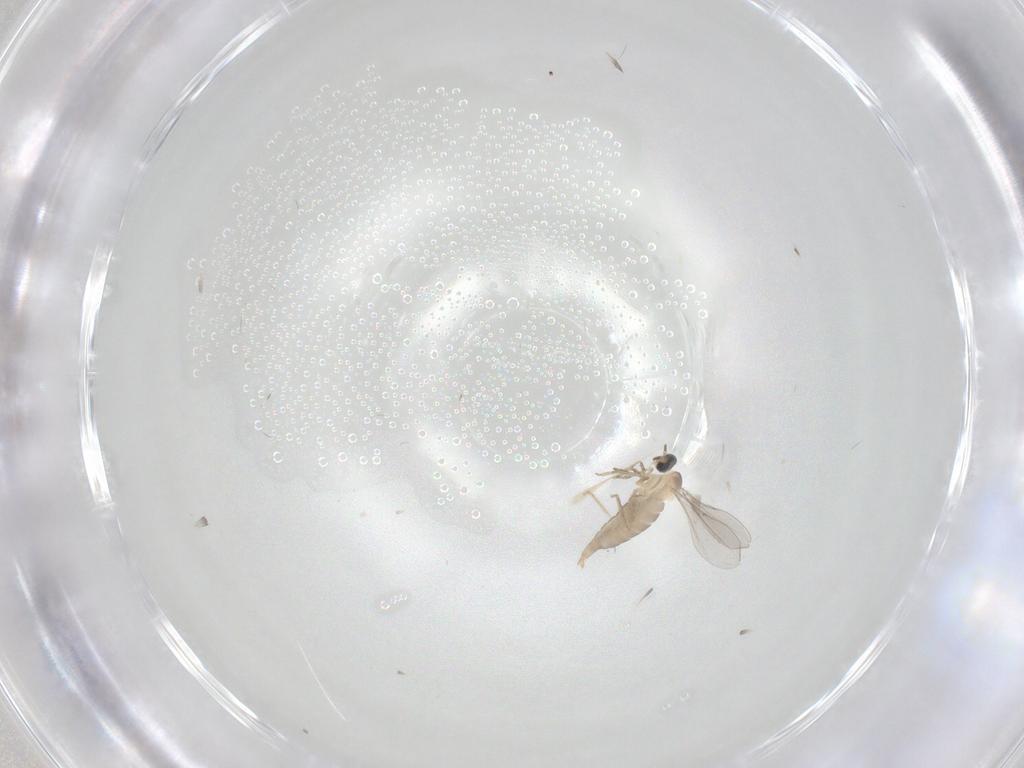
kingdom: Animalia
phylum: Arthropoda
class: Insecta
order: Diptera
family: Cecidomyiidae
